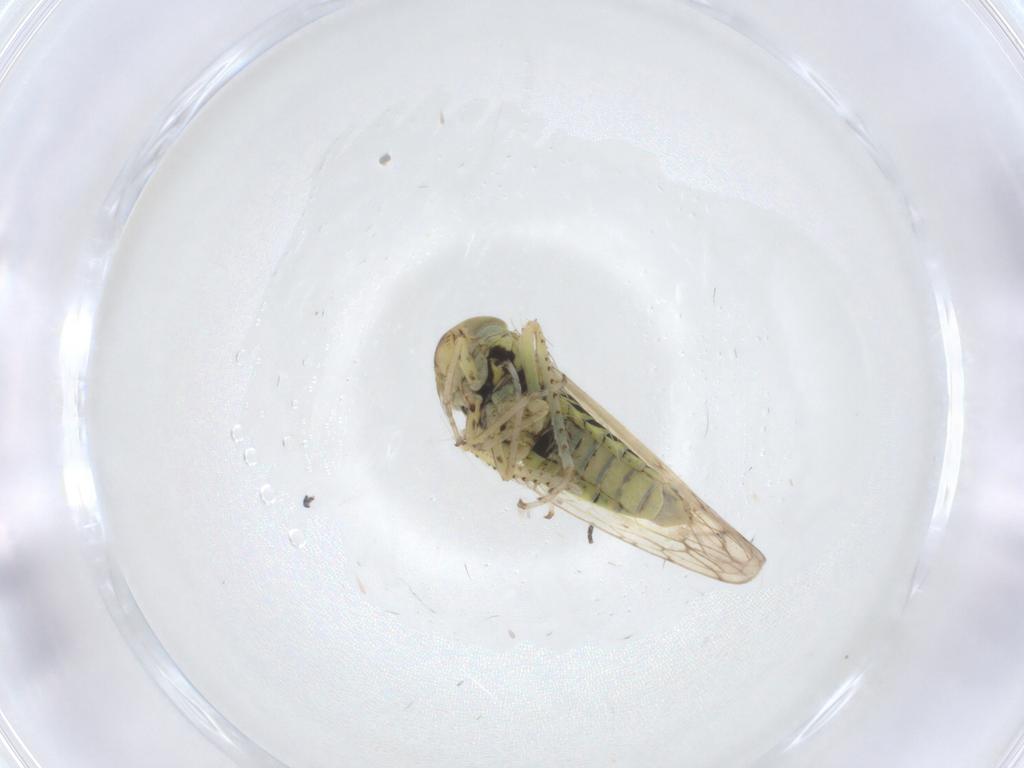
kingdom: Animalia
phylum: Arthropoda
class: Insecta
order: Hemiptera
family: Cicadellidae
